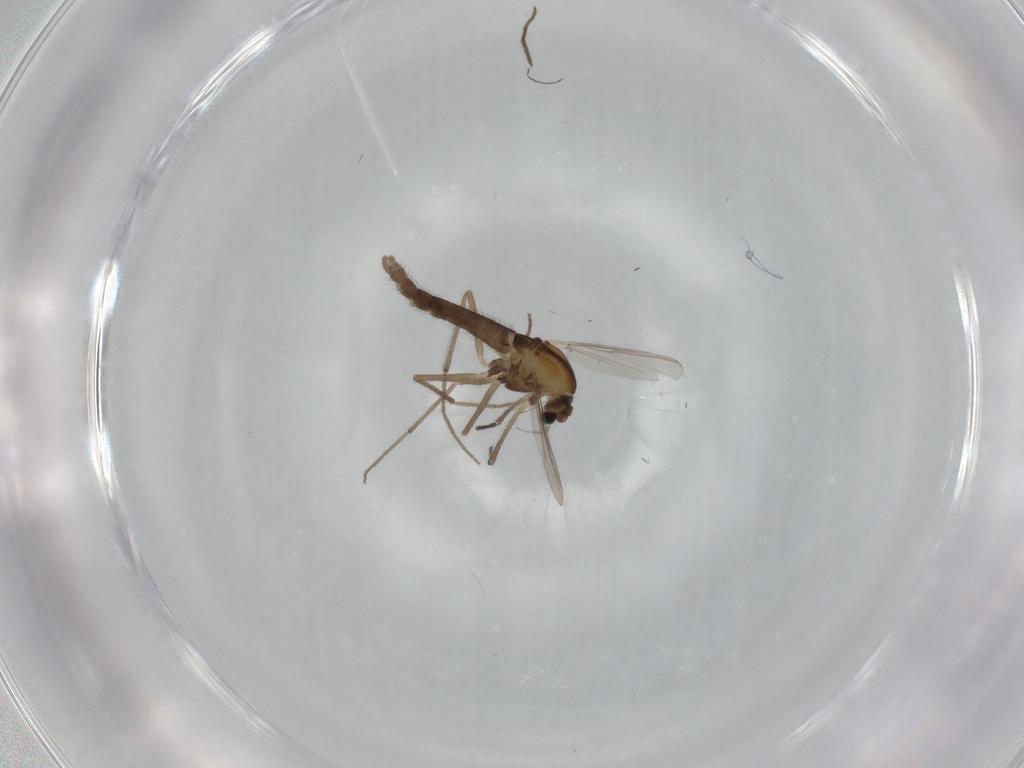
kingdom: Animalia
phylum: Arthropoda
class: Insecta
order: Diptera
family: Chironomidae
